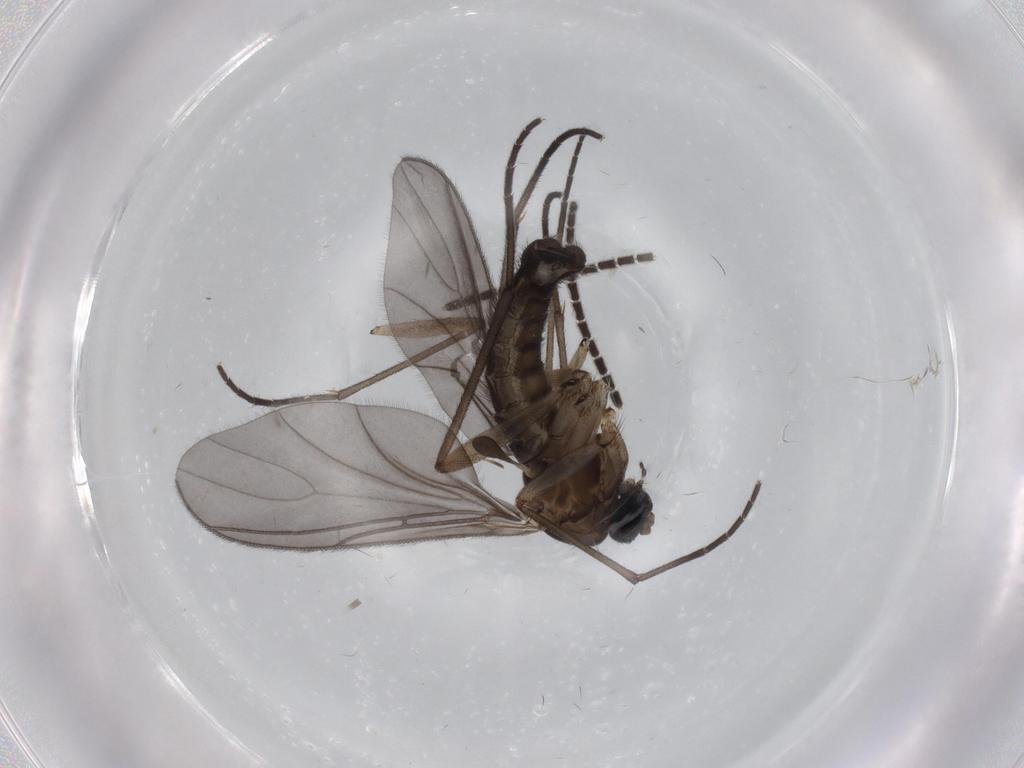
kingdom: Animalia
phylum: Arthropoda
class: Insecta
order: Diptera
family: Sciaridae
